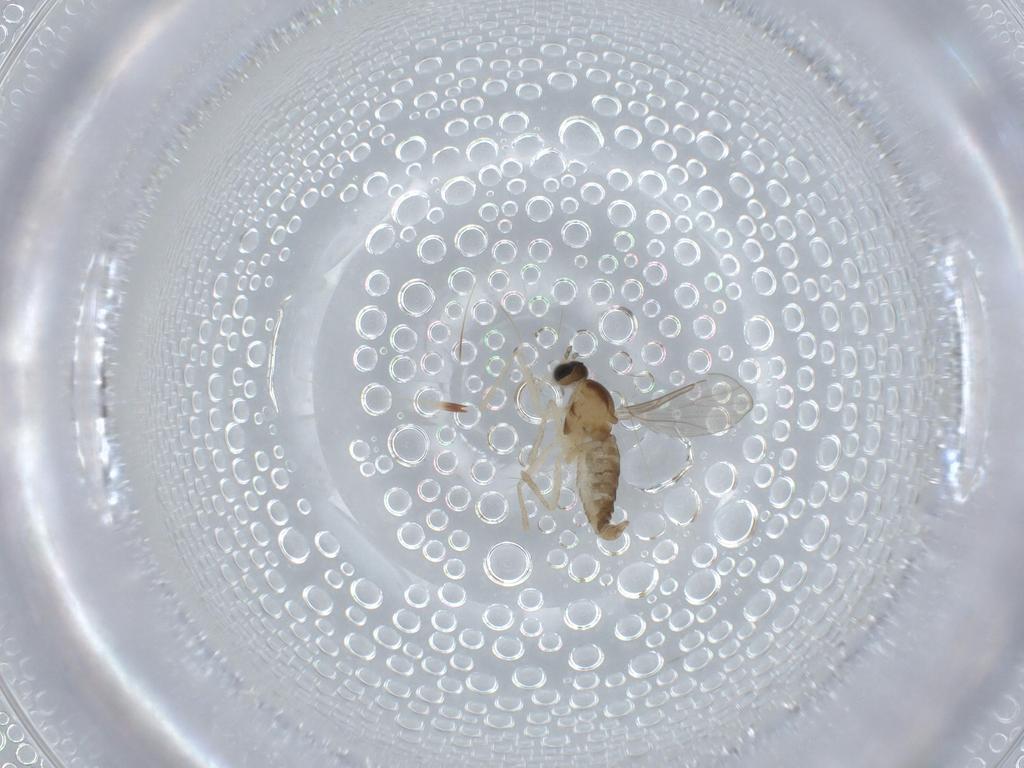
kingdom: Animalia
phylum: Arthropoda
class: Insecta
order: Diptera
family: Cecidomyiidae
